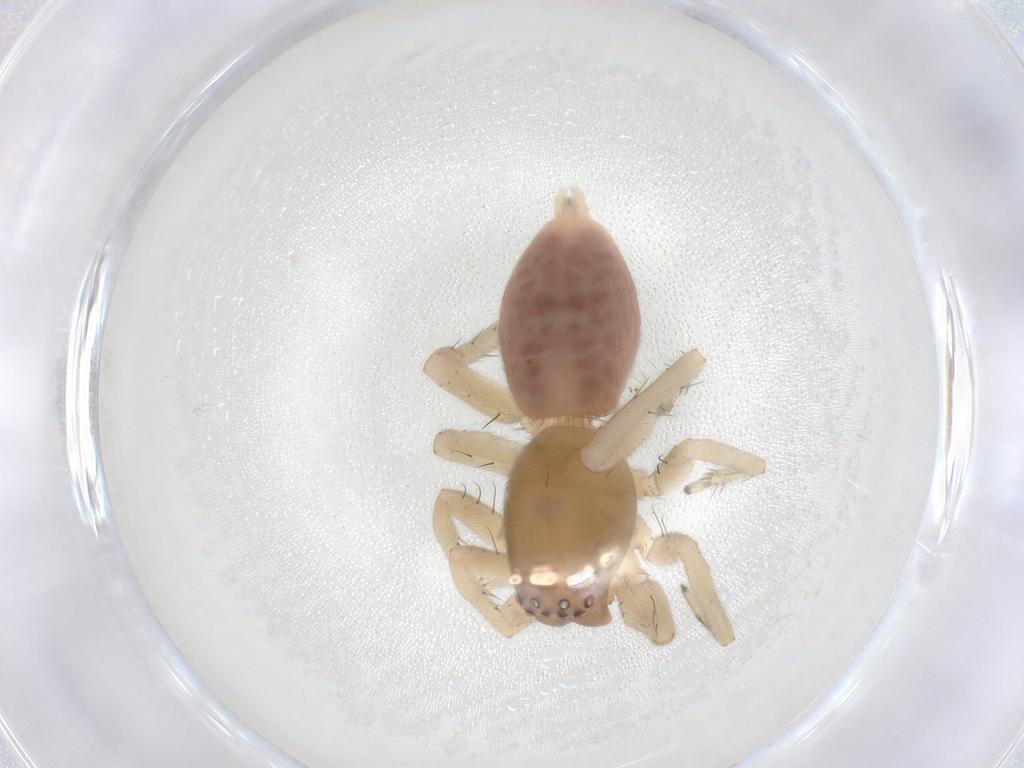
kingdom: Animalia
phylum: Arthropoda
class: Arachnida
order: Araneae
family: Clubionidae
